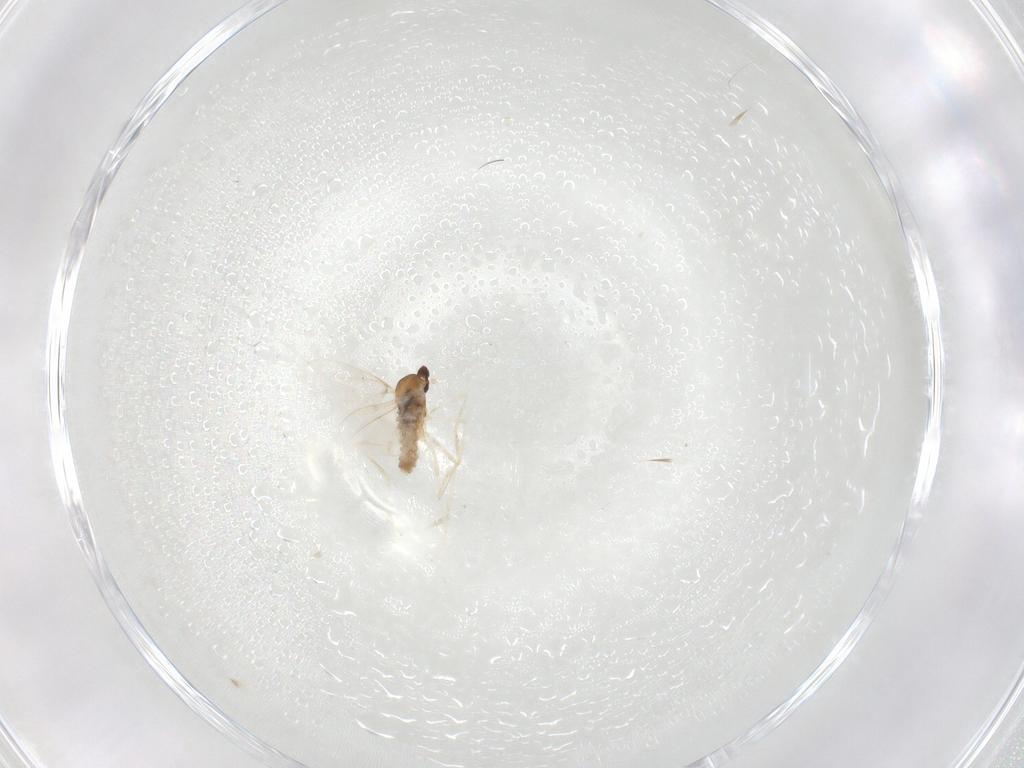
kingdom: Animalia
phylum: Arthropoda
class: Insecta
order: Diptera
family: Cecidomyiidae
